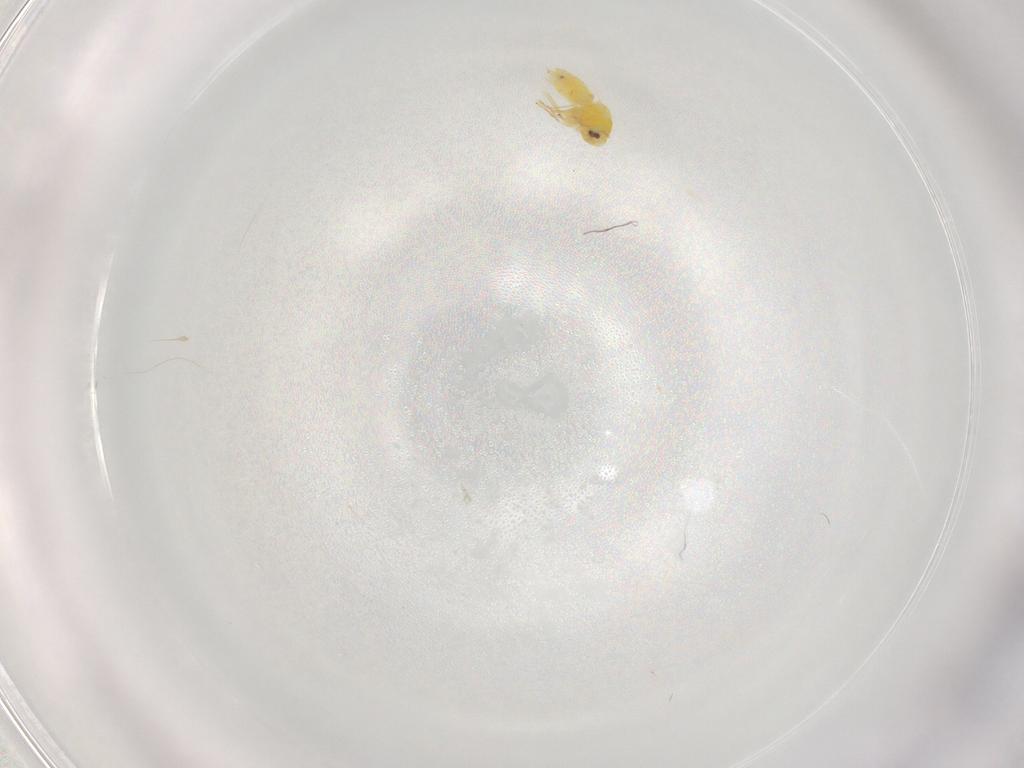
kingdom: Animalia
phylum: Arthropoda
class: Insecta
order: Hemiptera
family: Aleyrodidae
